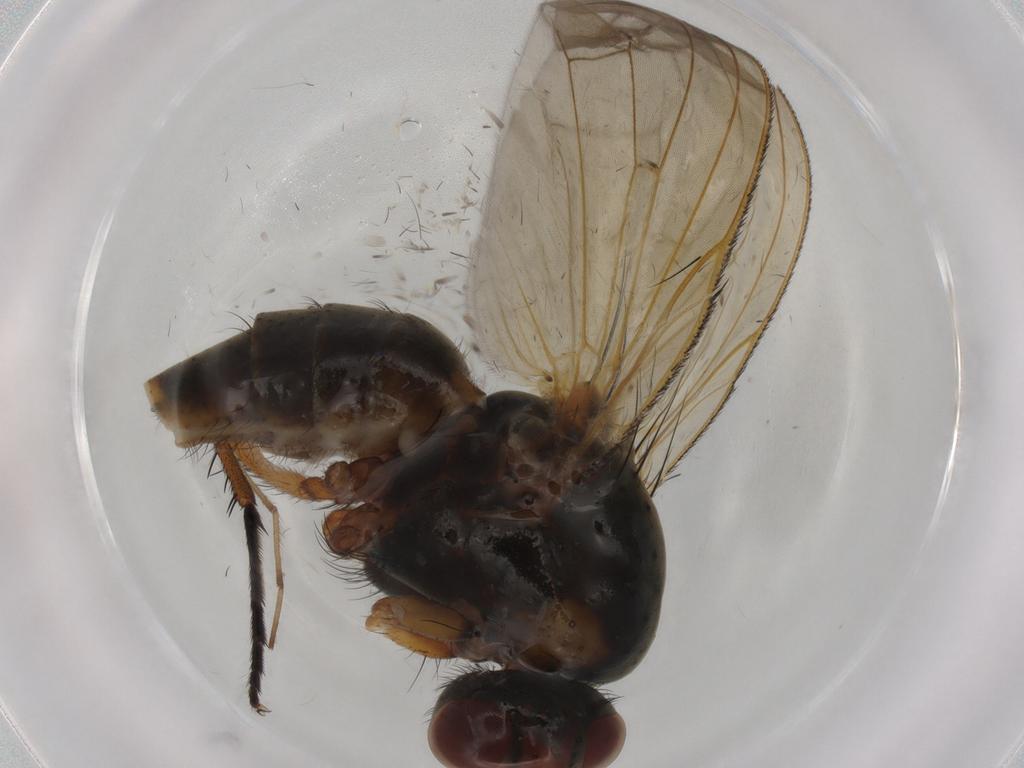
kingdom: Animalia
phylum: Arthropoda
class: Insecta
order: Diptera
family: Anthomyiidae
